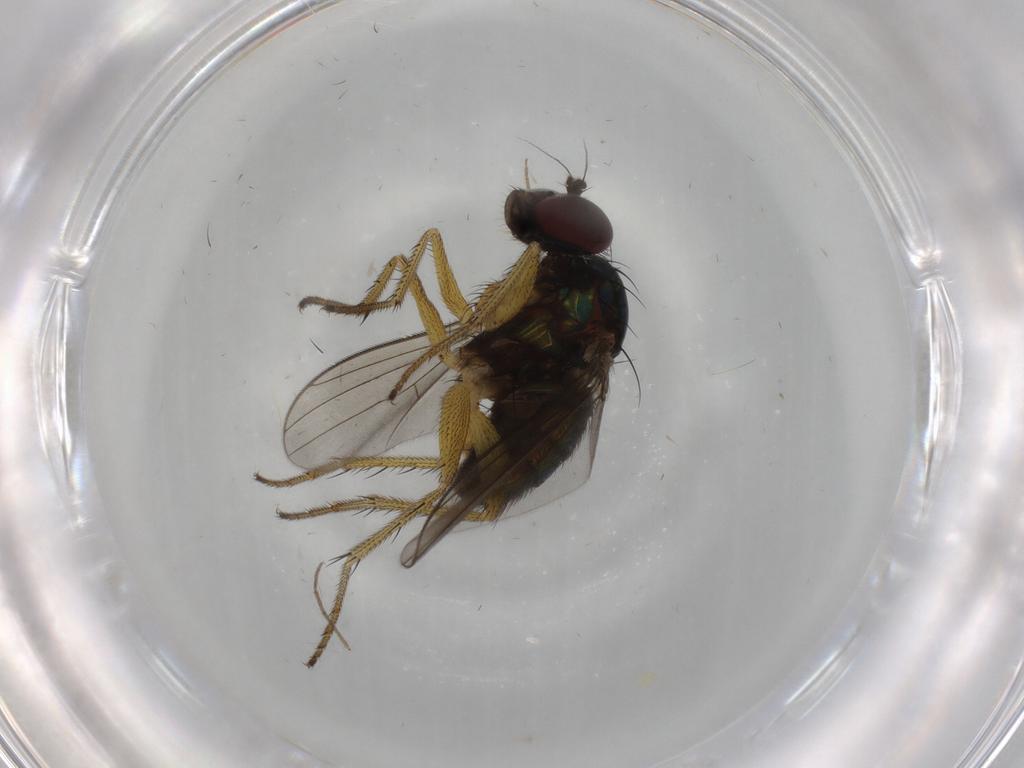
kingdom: Animalia
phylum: Arthropoda
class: Insecta
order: Diptera
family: Dolichopodidae
